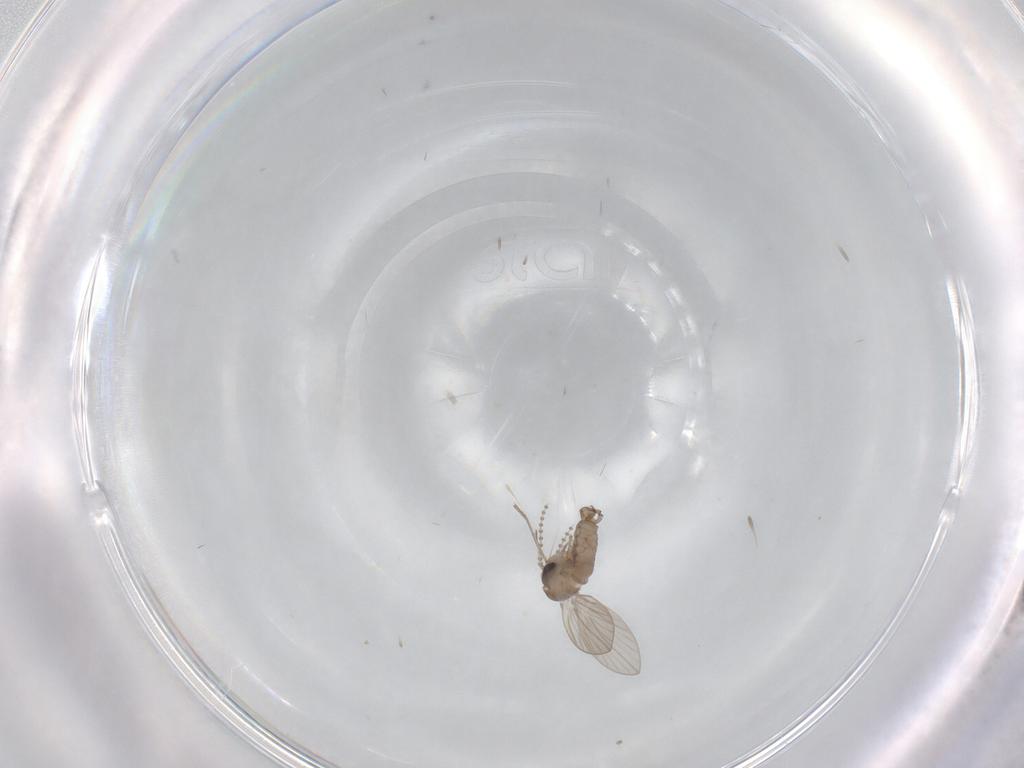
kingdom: Animalia
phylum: Arthropoda
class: Insecta
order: Diptera
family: Psychodidae
